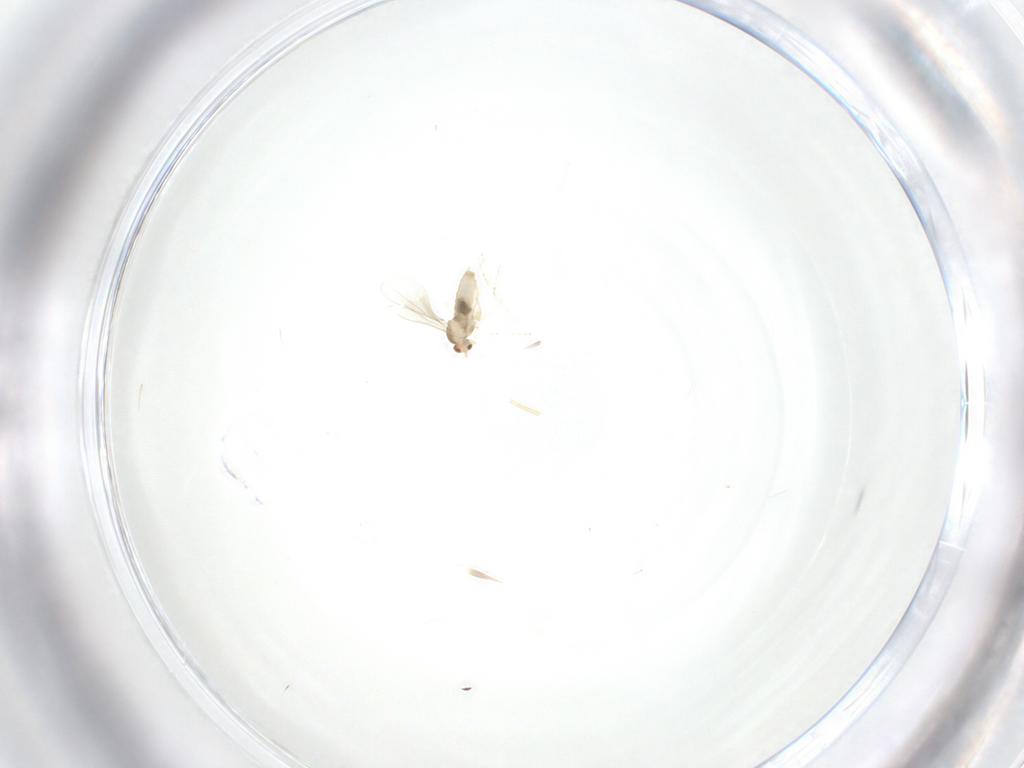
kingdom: Animalia
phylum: Arthropoda
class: Insecta
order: Diptera
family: Cecidomyiidae
